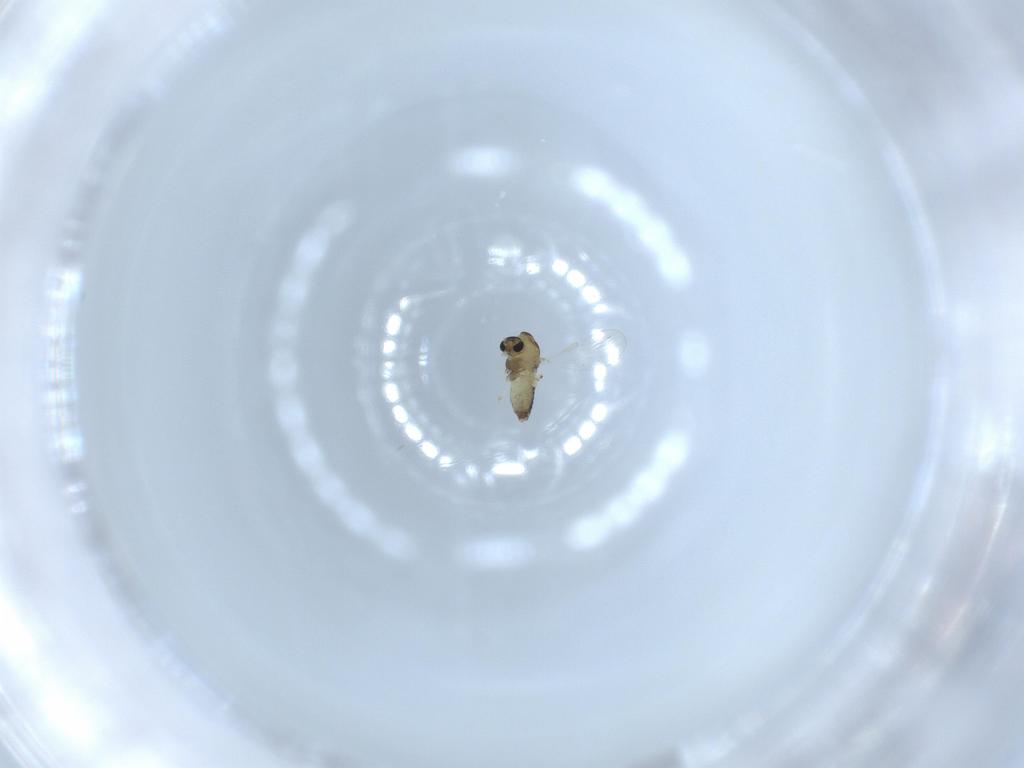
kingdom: Animalia
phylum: Arthropoda
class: Insecta
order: Diptera
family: Chironomidae
